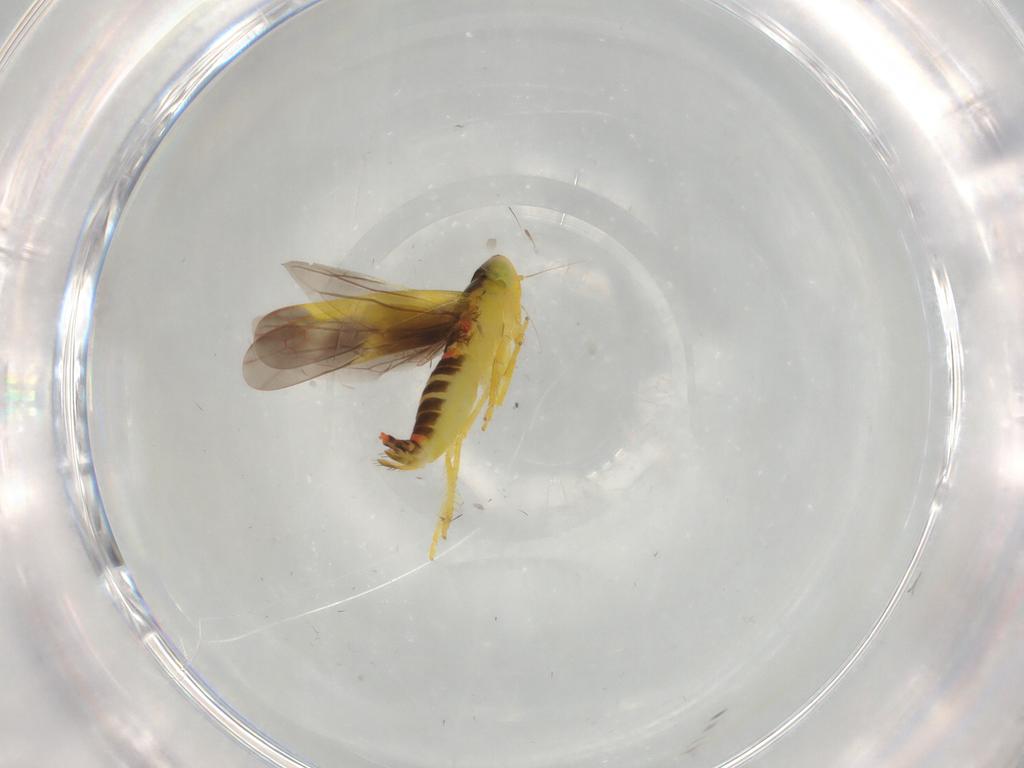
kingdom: Animalia
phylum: Arthropoda
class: Insecta
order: Hemiptera
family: Cicadellidae
